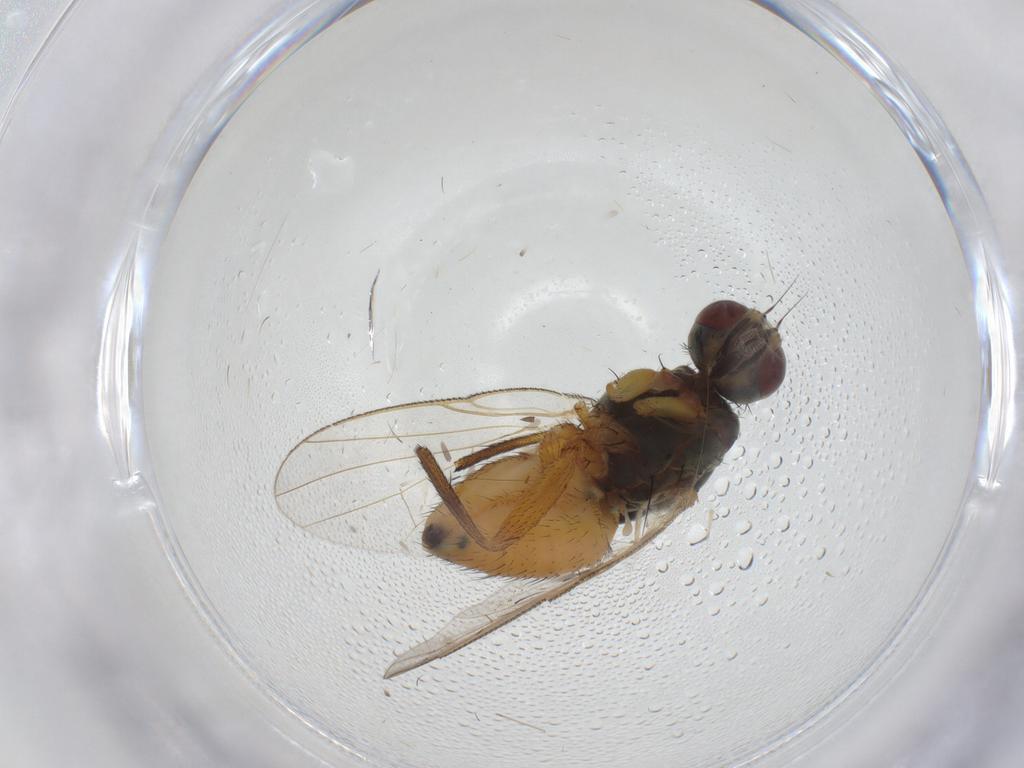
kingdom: Animalia
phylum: Arthropoda
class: Insecta
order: Diptera
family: Muscidae
